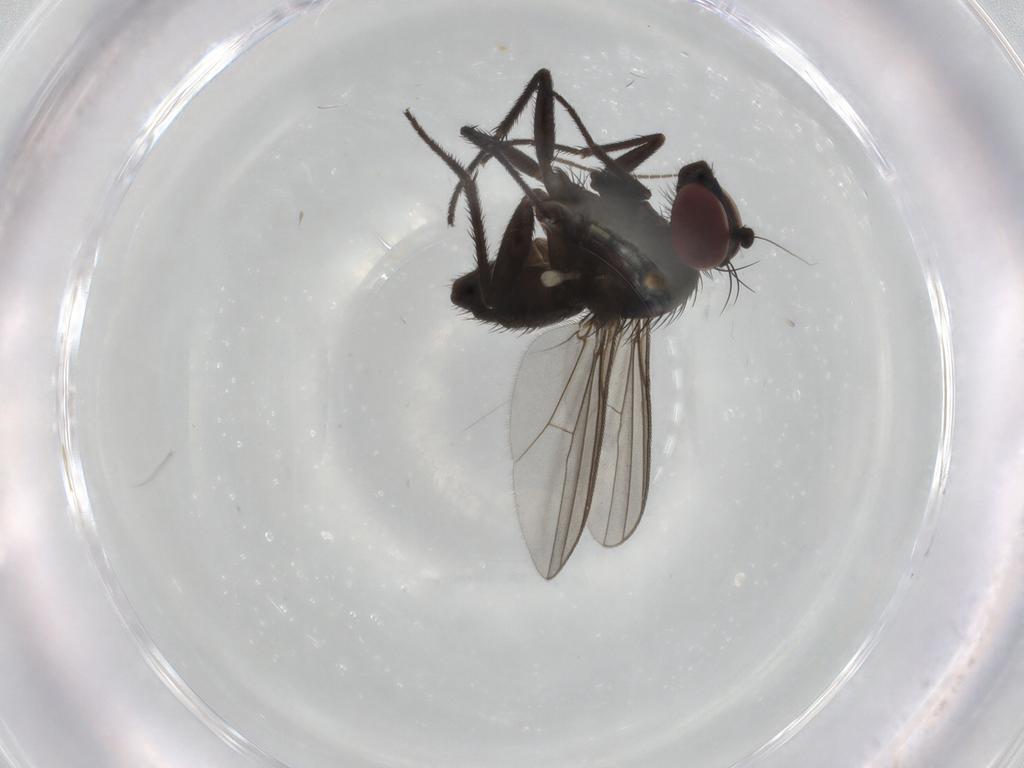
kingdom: Animalia
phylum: Arthropoda
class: Insecta
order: Diptera
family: Dolichopodidae
